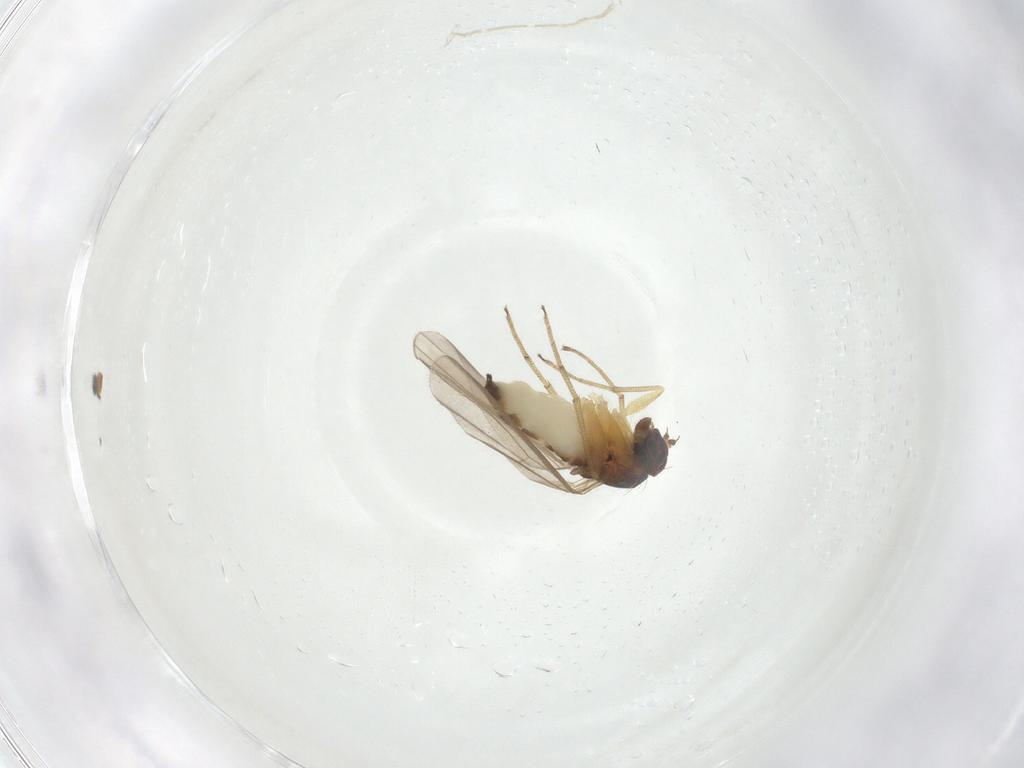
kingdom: Animalia
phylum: Arthropoda
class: Insecta
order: Diptera
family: Dolichopodidae
